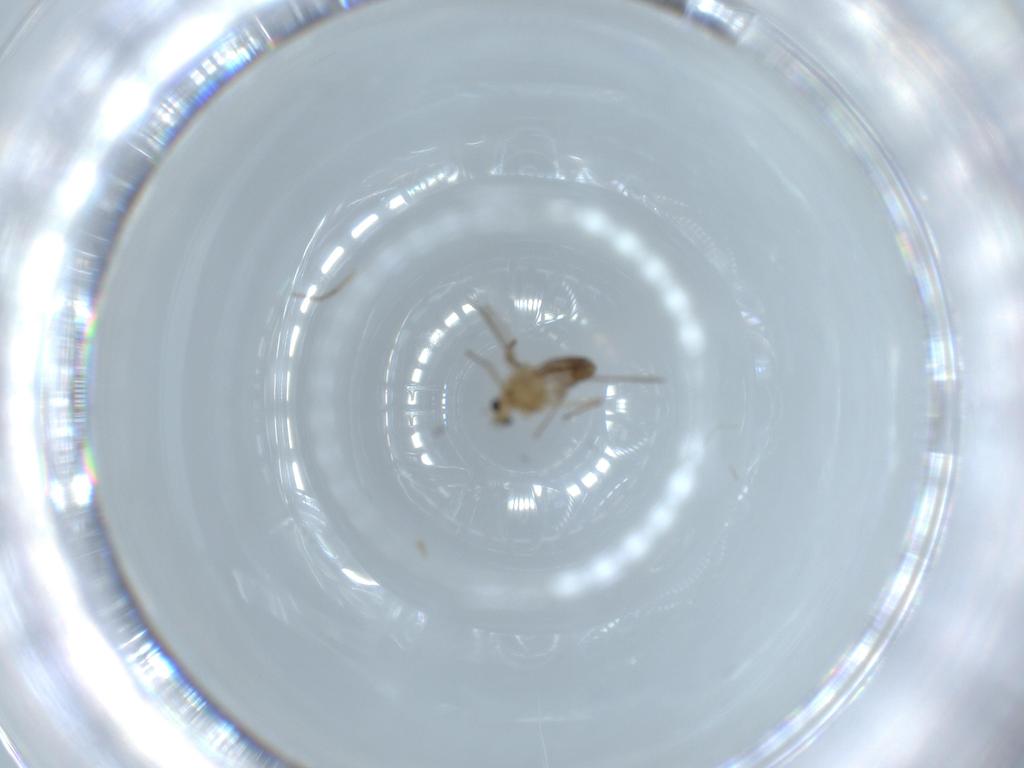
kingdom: Animalia
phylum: Arthropoda
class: Insecta
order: Diptera
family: Chironomidae
